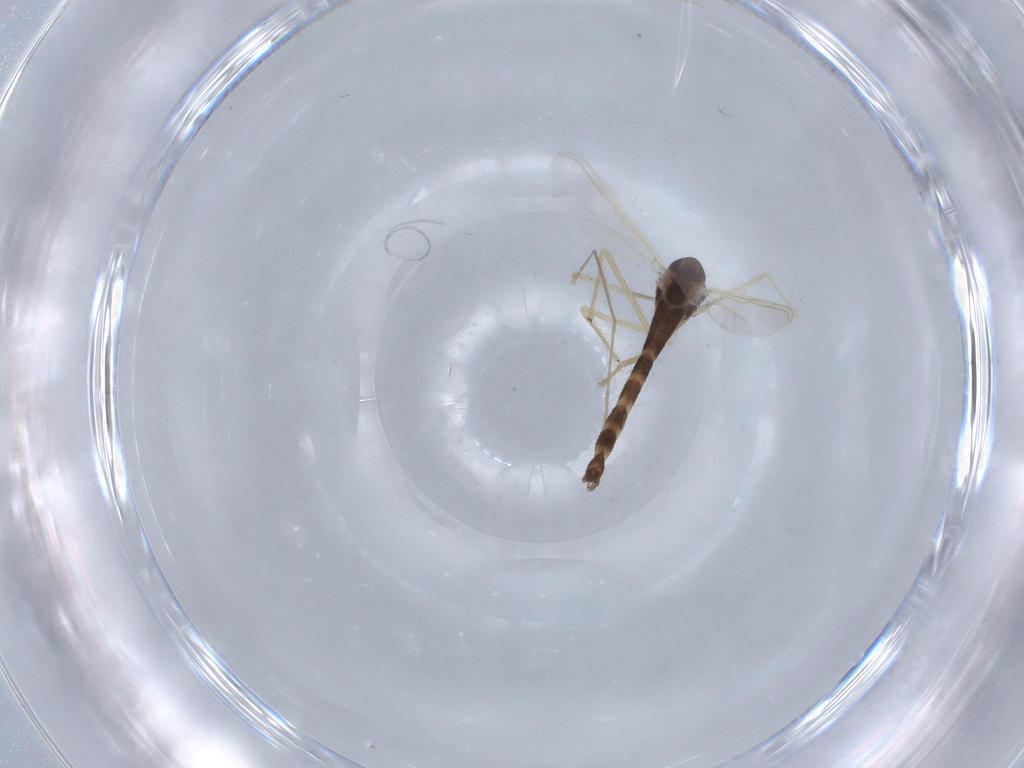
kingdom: Animalia
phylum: Arthropoda
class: Insecta
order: Diptera
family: Chironomidae
